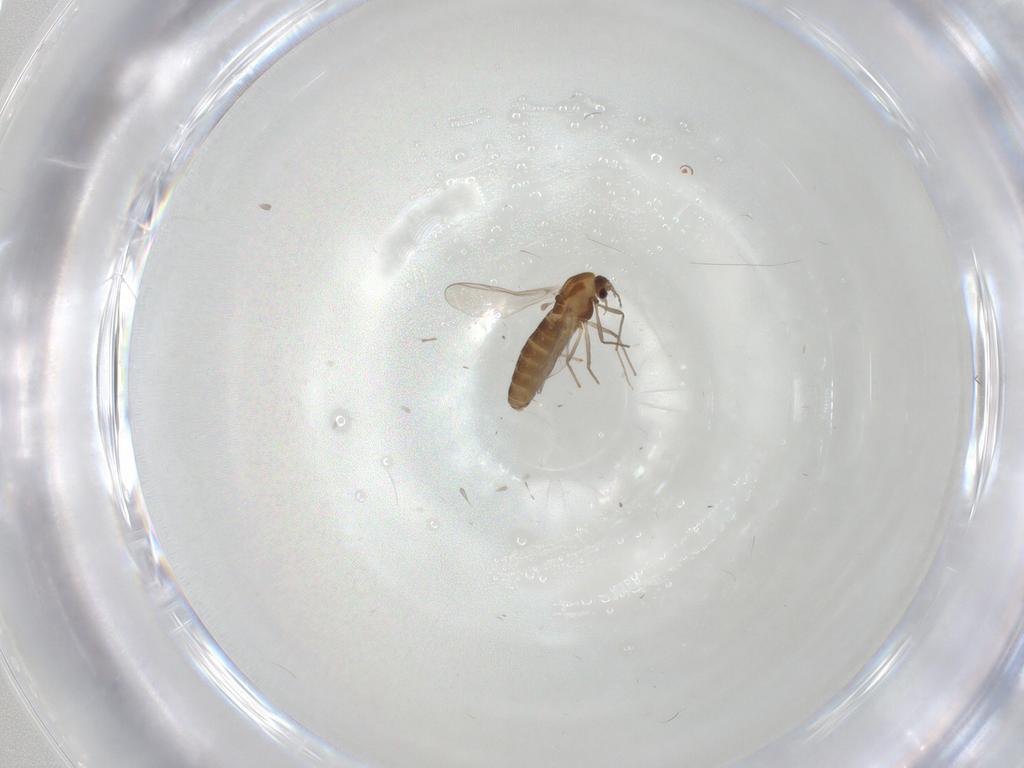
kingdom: Animalia
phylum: Arthropoda
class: Insecta
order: Diptera
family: Chironomidae
